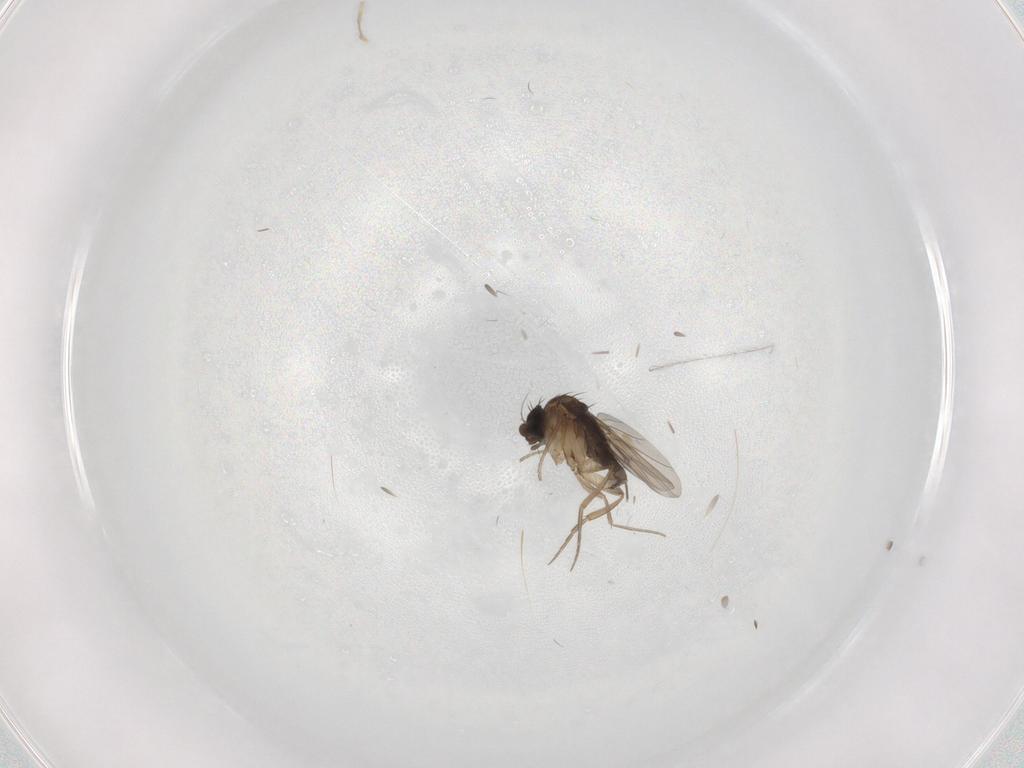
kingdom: Animalia
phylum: Arthropoda
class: Insecta
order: Diptera
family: Phoridae
